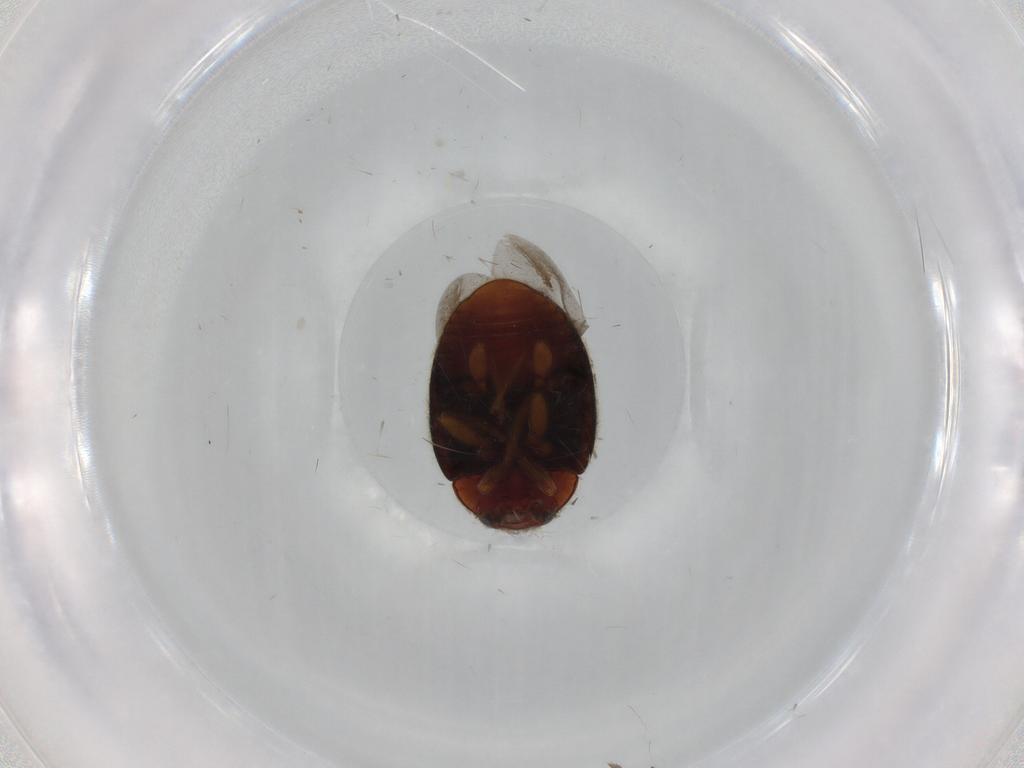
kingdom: Animalia
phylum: Arthropoda
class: Insecta
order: Coleoptera
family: Coccinellidae
